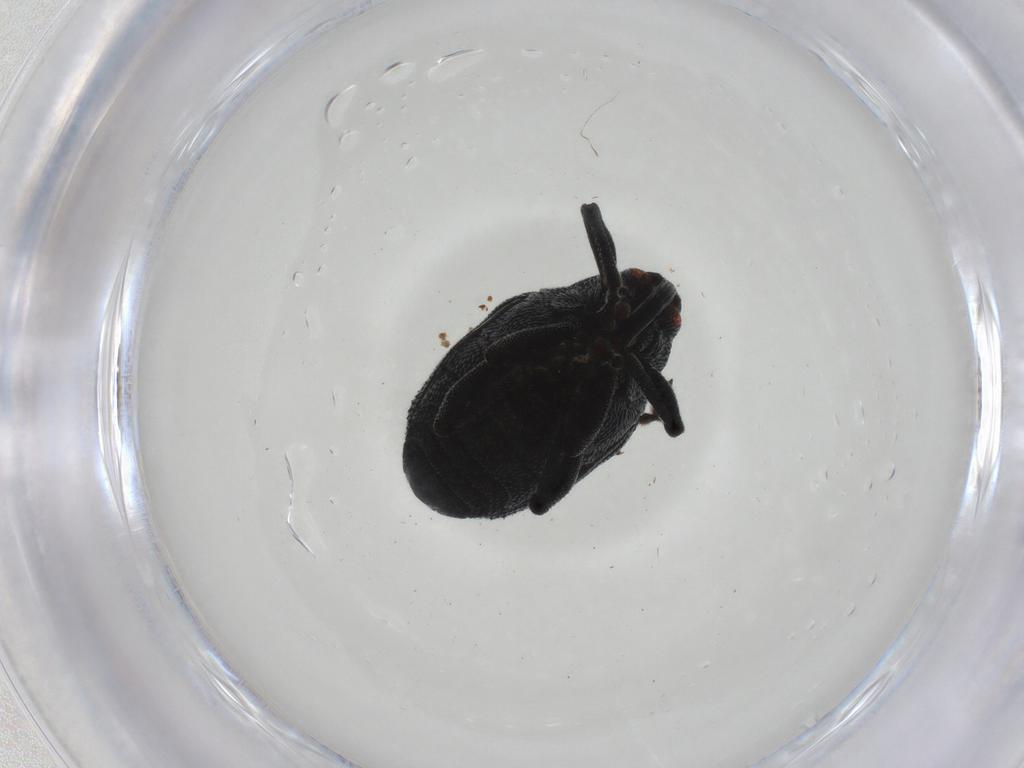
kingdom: Animalia
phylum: Arthropoda
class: Insecta
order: Coleoptera
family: Curculionidae
